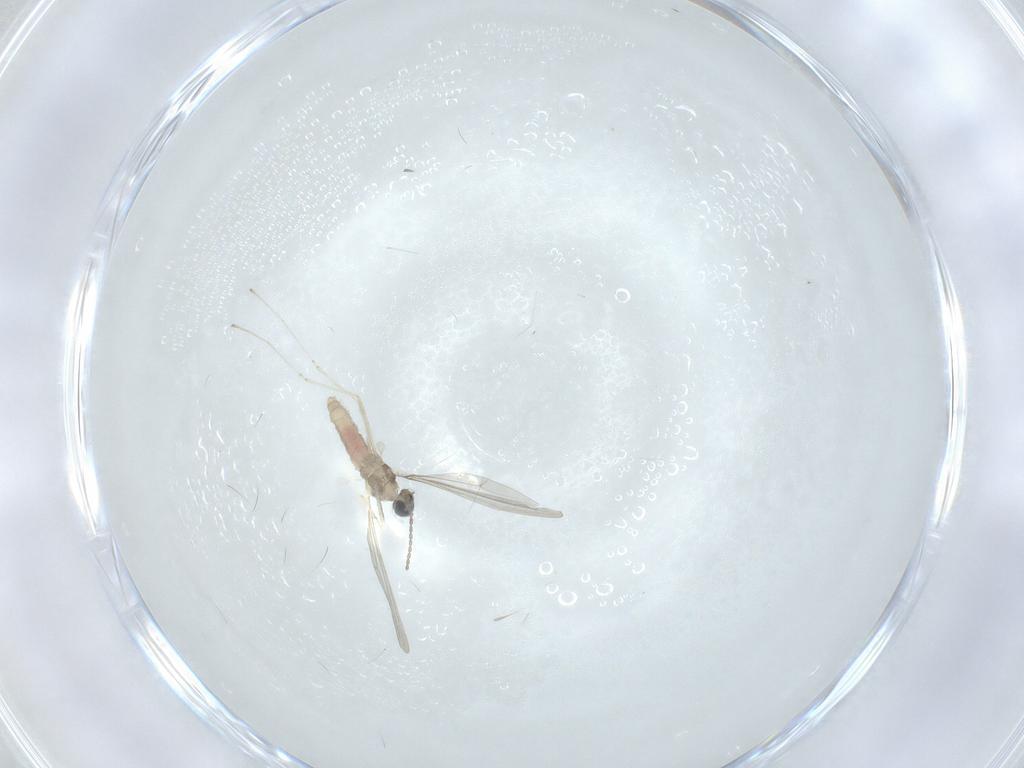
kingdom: Animalia
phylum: Arthropoda
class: Insecta
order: Diptera
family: Cecidomyiidae
